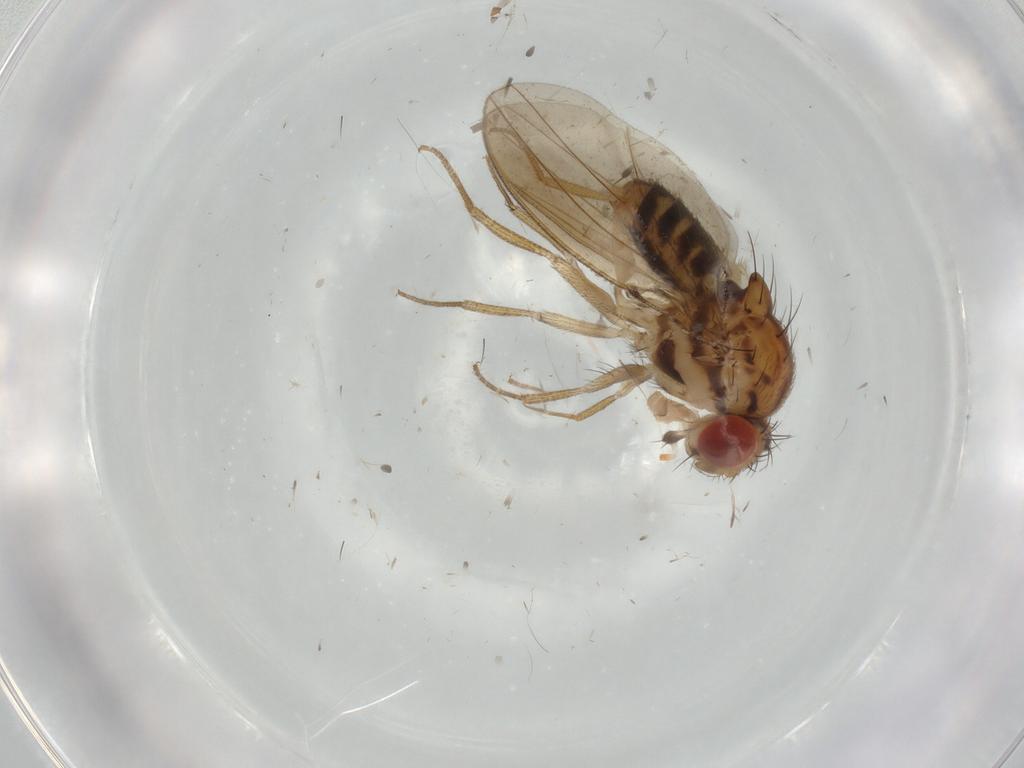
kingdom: Animalia
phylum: Arthropoda
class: Insecta
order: Diptera
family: Drosophilidae
